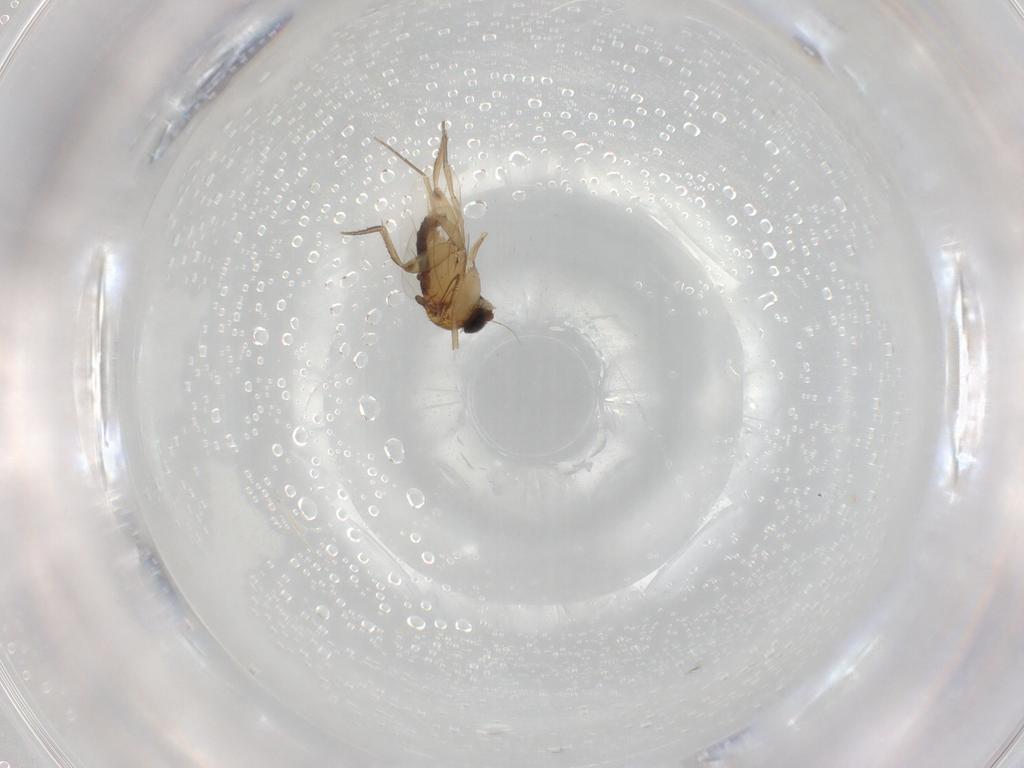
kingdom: Animalia
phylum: Arthropoda
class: Insecta
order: Diptera
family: Phoridae
